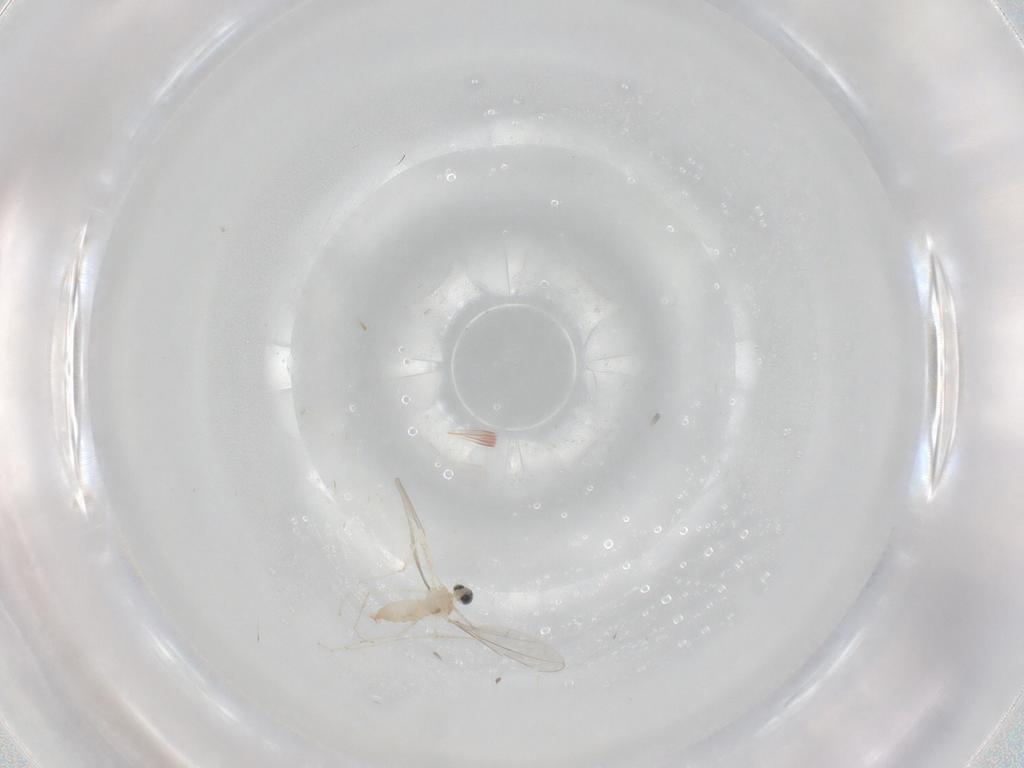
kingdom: Animalia
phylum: Arthropoda
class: Insecta
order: Diptera
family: Cecidomyiidae
